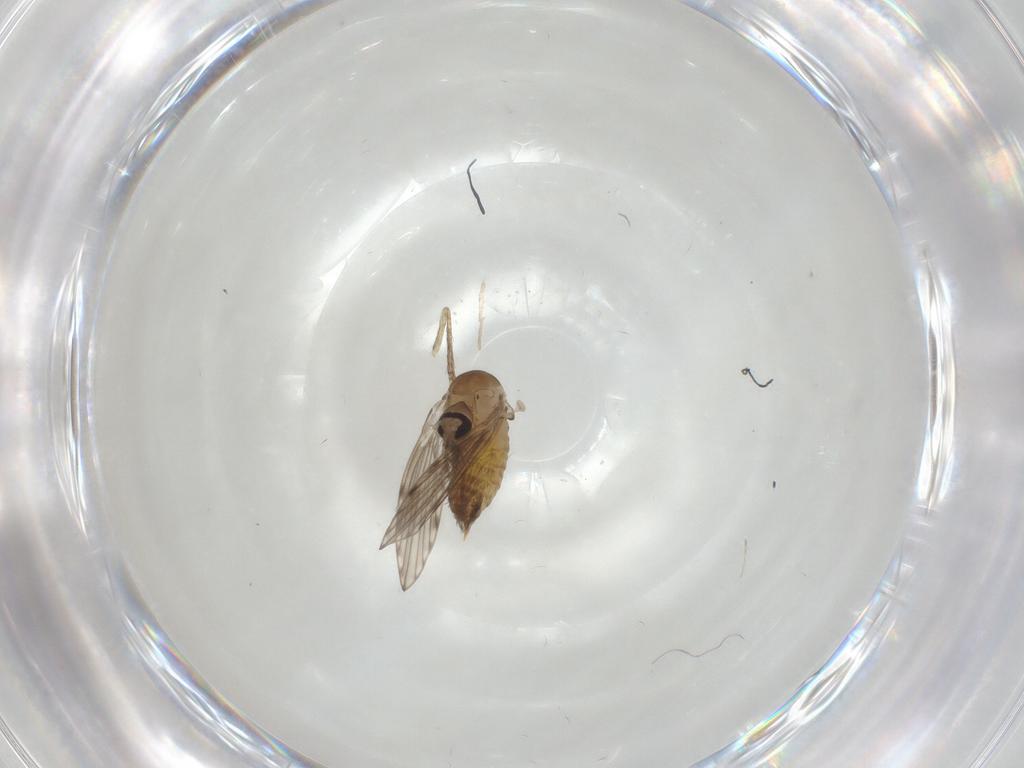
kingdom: Animalia
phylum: Arthropoda
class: Insecta
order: Diptera
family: Psychodidae
